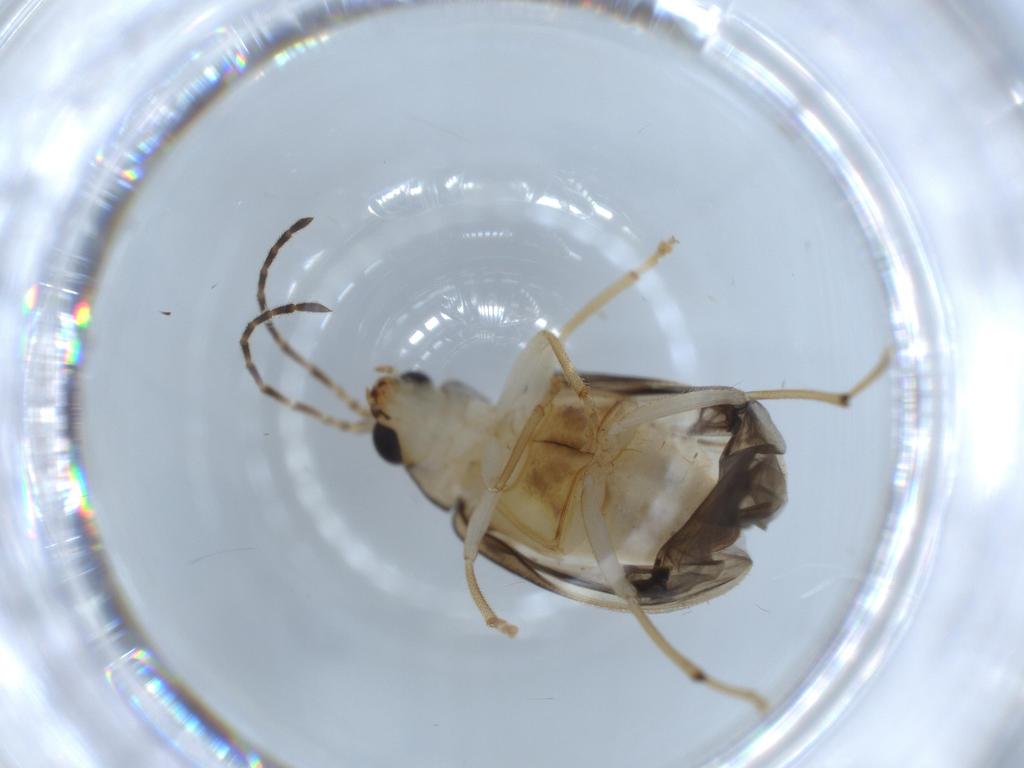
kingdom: Animalia
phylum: Arthropoda
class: Insecta
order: Coleoptera
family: Chrysomelidae
